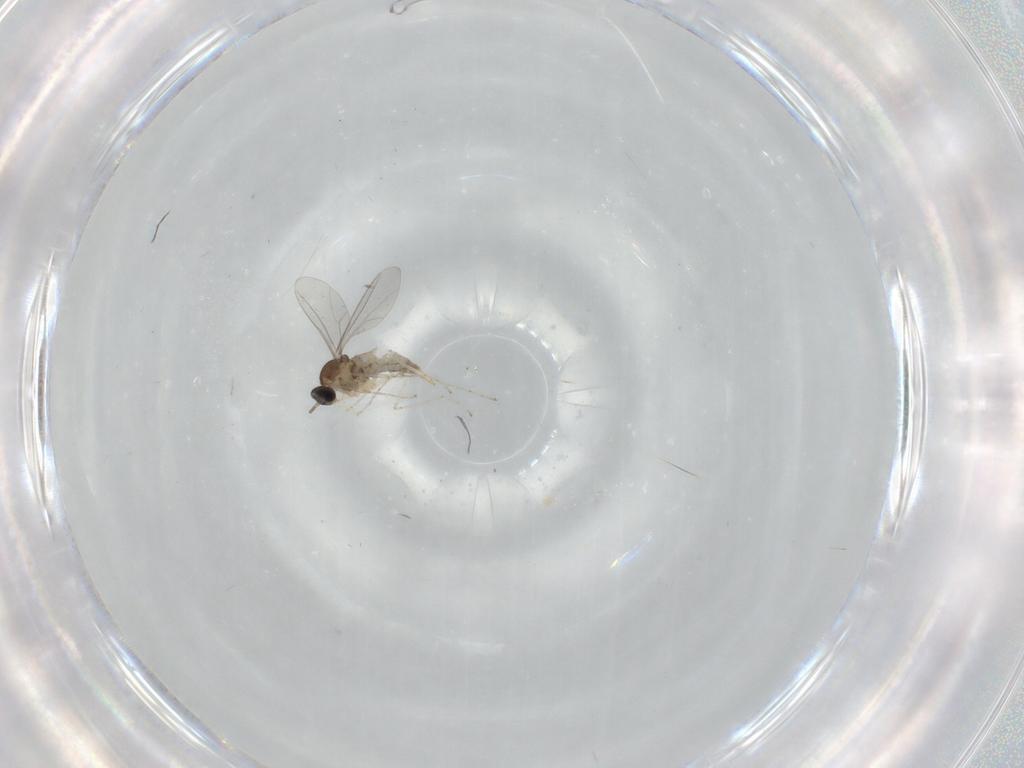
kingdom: Animalia
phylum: Arthropoda
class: Insecta
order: Diptera
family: Cecidomyiidae
